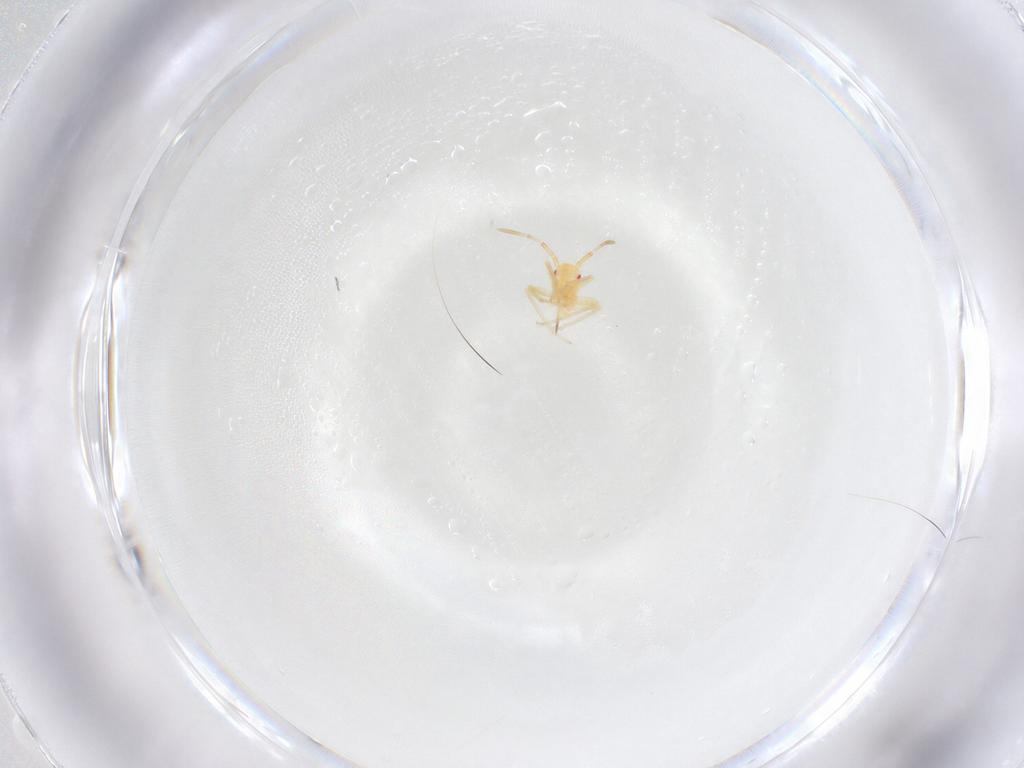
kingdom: Animalia
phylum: Arthropoda
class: Insecta
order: Hemiptera
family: Miridae
